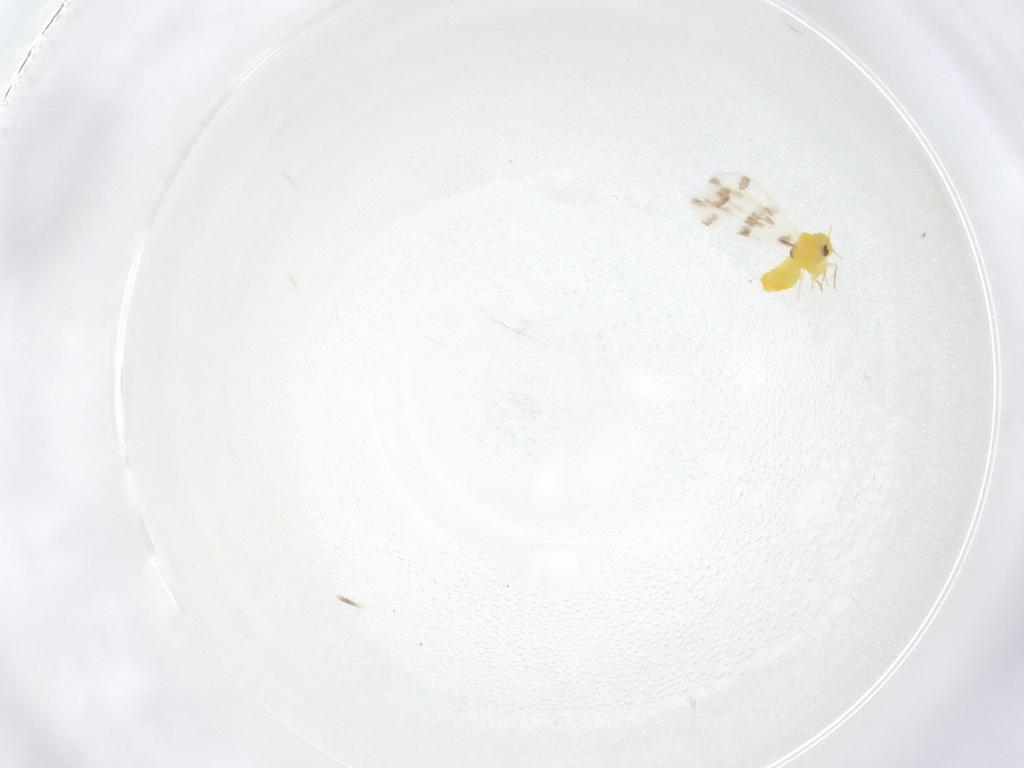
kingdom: Animalia
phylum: Arthropoda
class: Insecta
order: Hemiptera
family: Aleyrodidae
